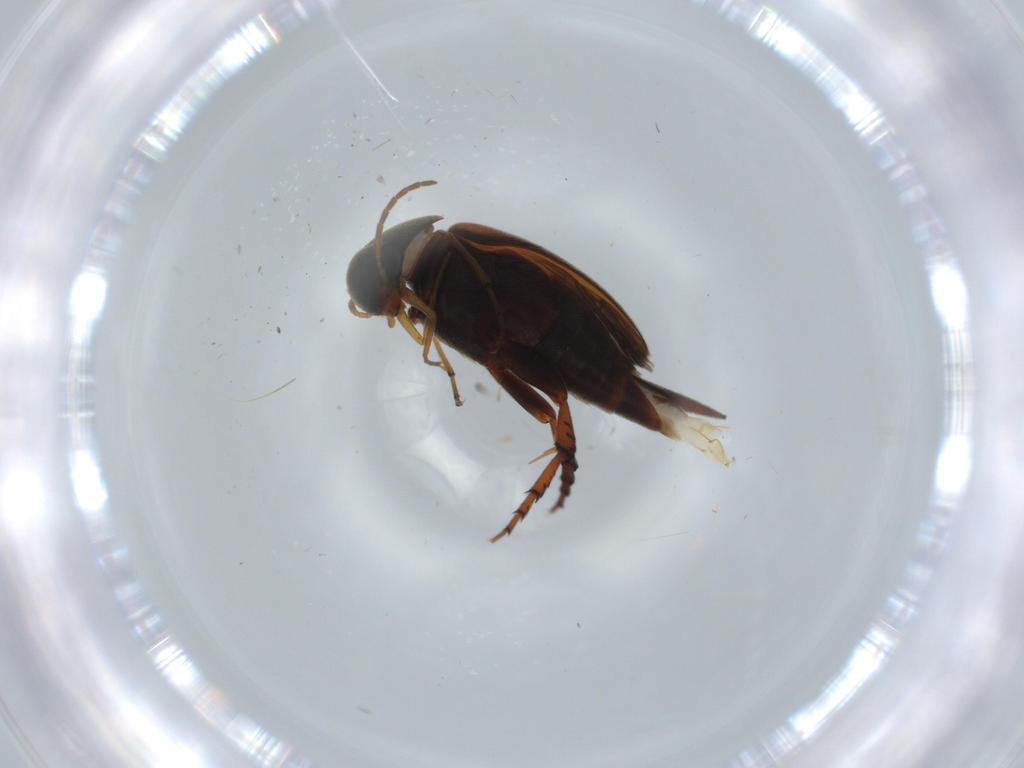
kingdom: Animalia
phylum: Arthropoda
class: Insecta
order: Coleoptera
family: Mordellidae
